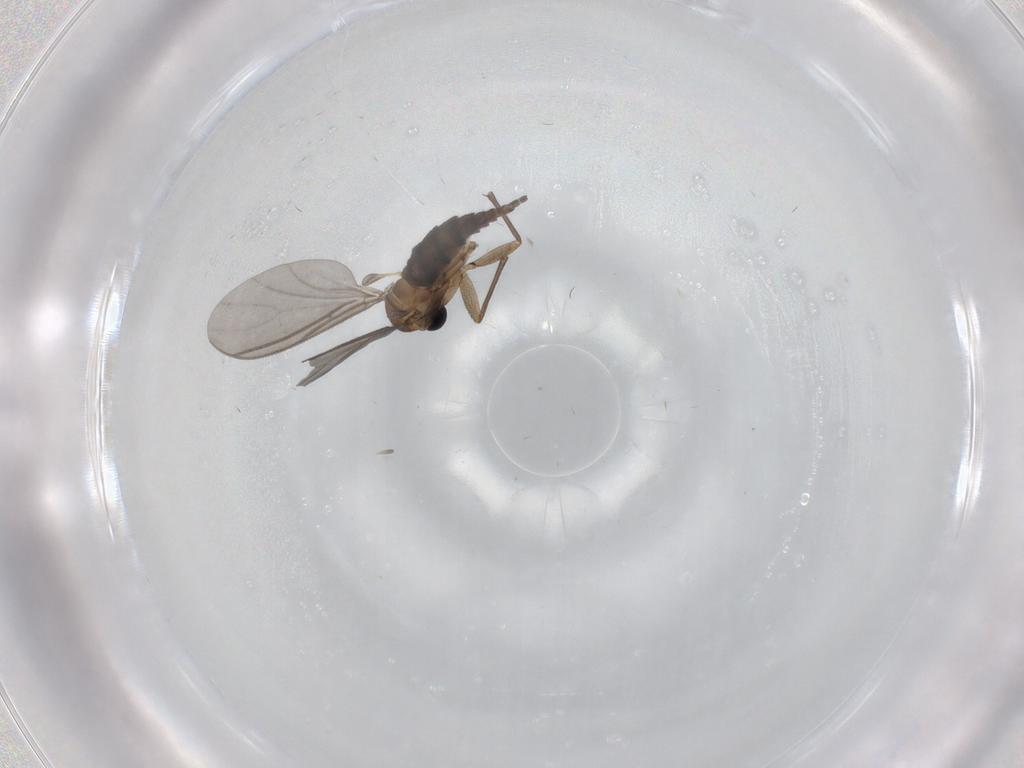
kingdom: Animalia
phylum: Arthropoda
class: Insecta
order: Diptera
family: Sciaridae
